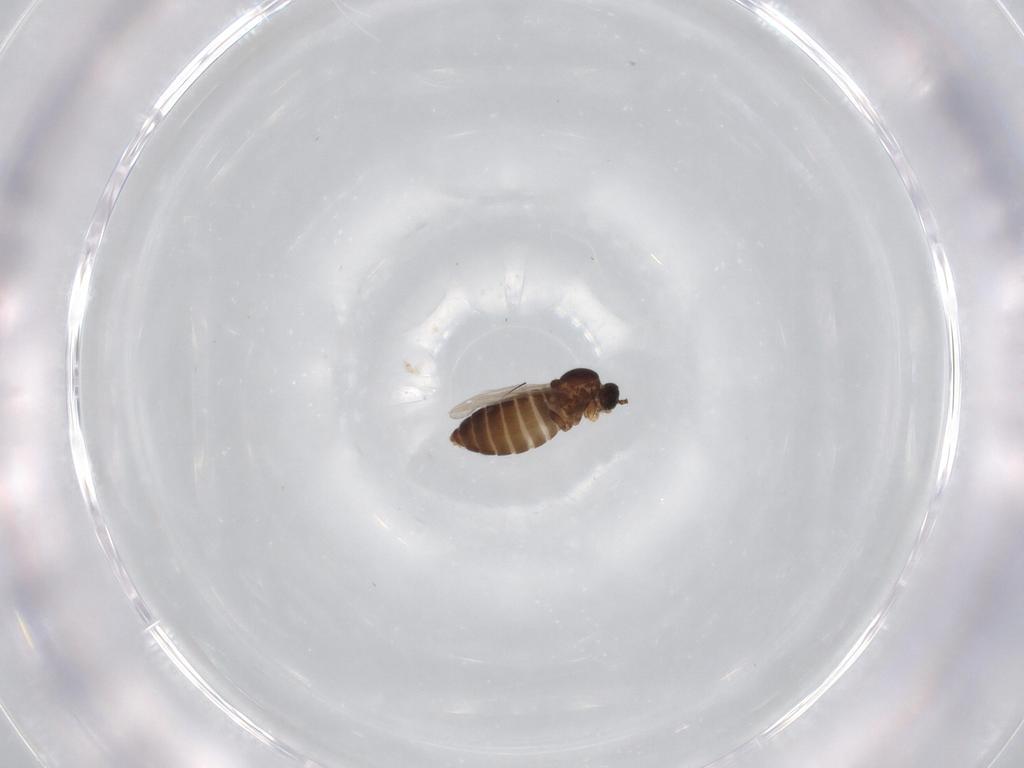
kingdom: Animalia
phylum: Arthropoda
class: Insecta
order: Diptera
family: Scatopsidae
